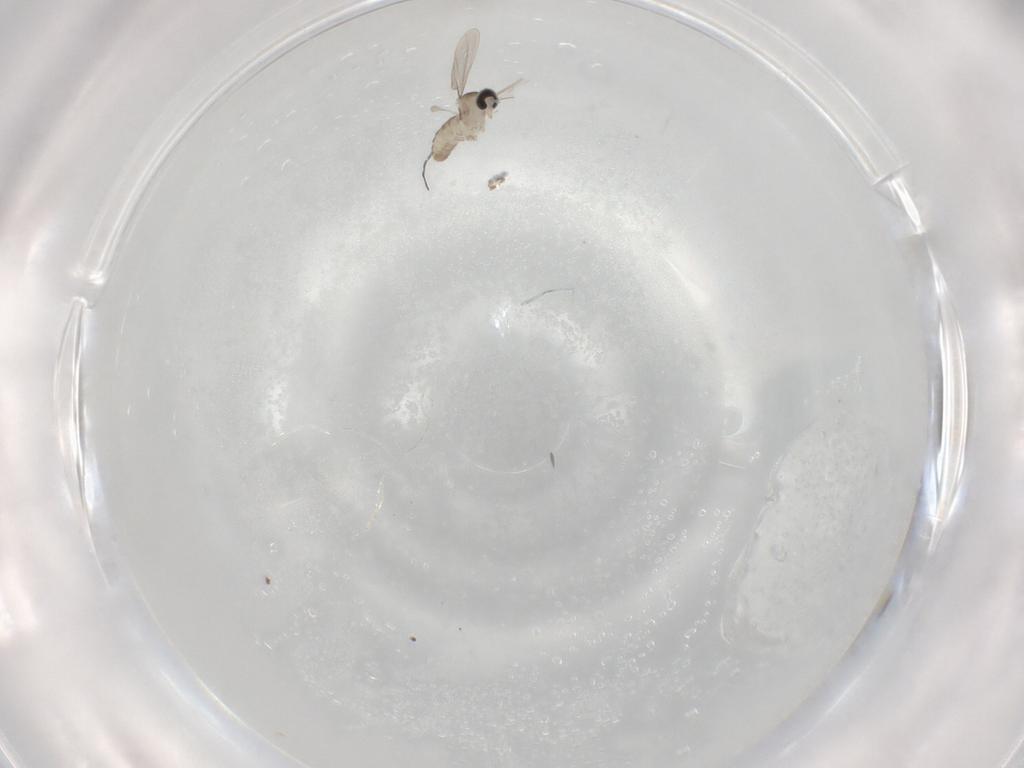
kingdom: Animalia
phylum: Arthropoda
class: Insecta
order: Diptera
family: Cecidomyiidae
